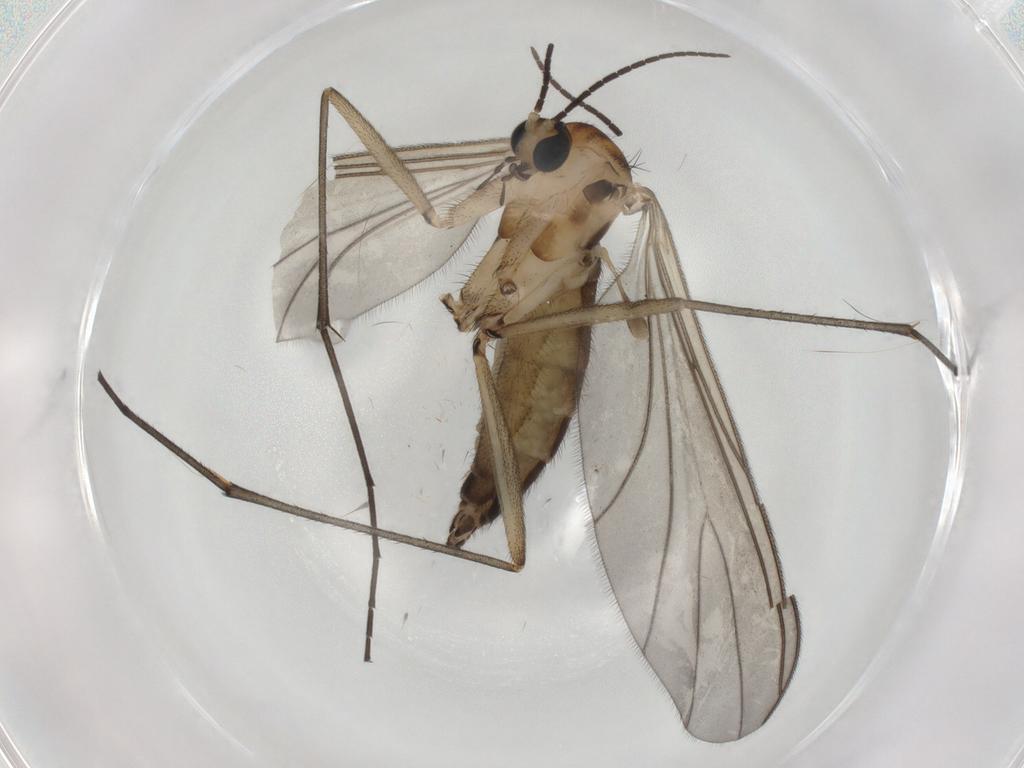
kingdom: Animalia
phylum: Arthropoda
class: Insecta
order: Diptera
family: Sciaridae
